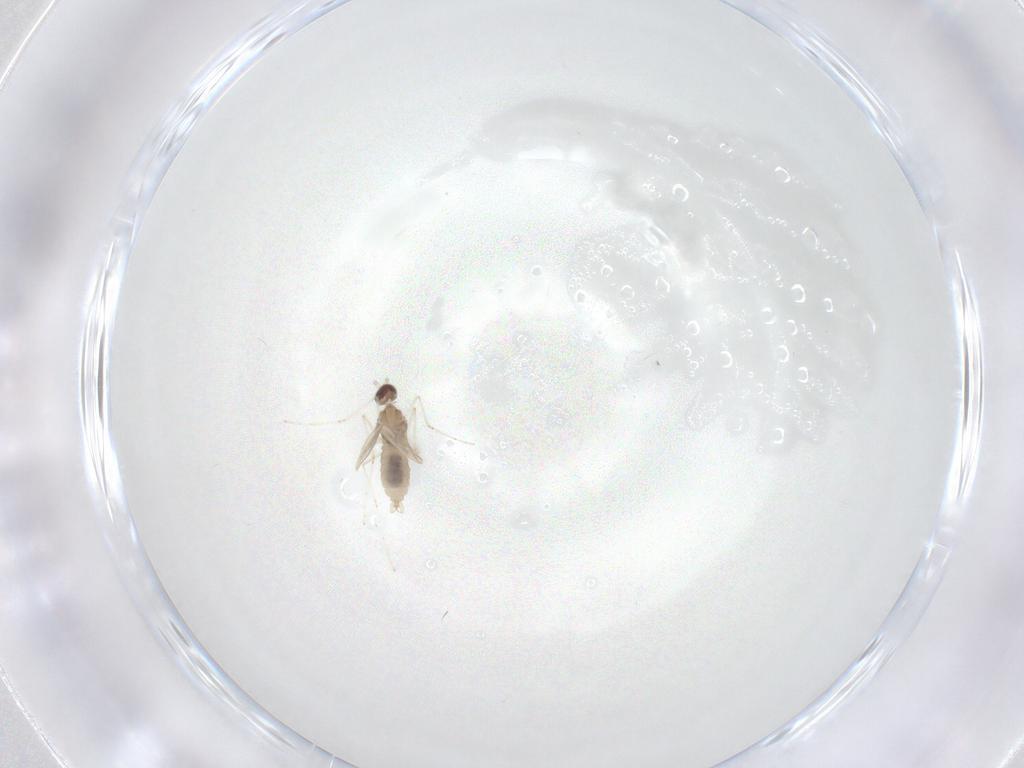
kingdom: Animalia
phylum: Arthropoda
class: Insecta
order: Diptera
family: Cecidomyiidae
